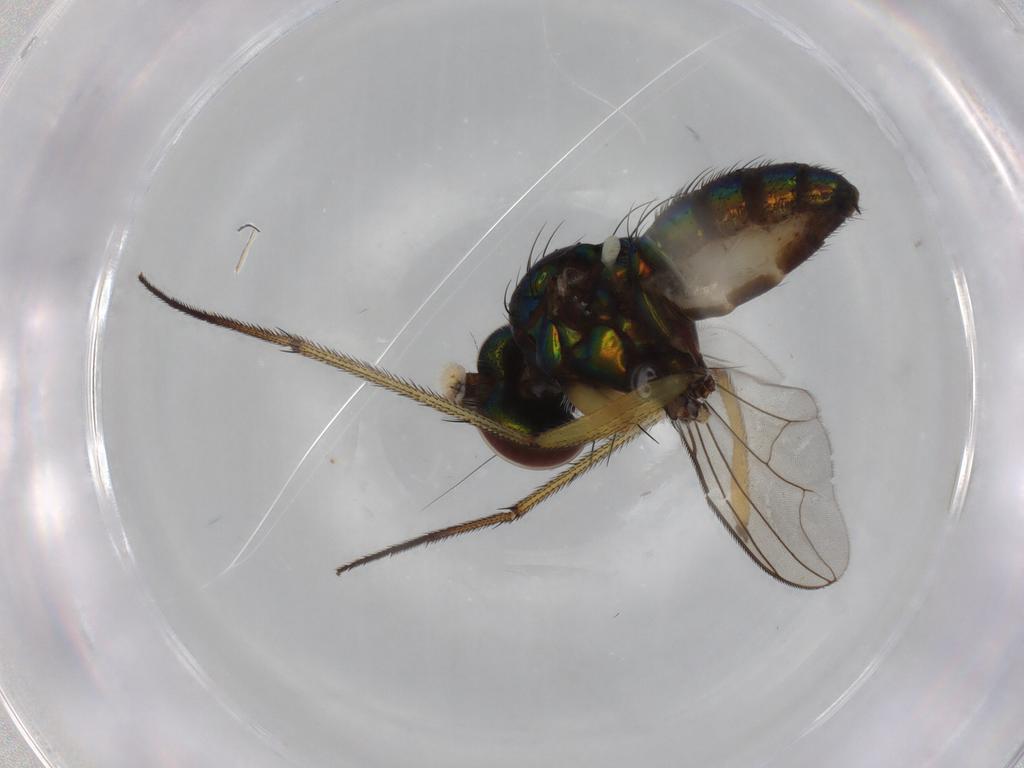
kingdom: Animalia
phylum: Arthropoda
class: Insecta
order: Diptera
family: Dolichopodidae
